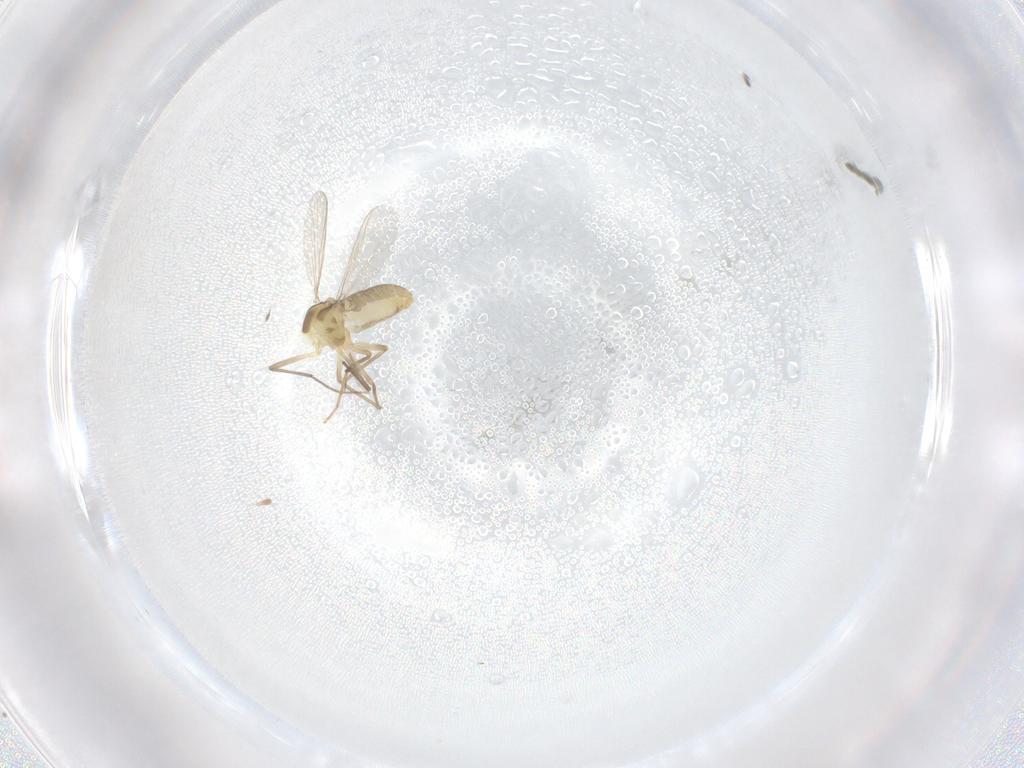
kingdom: Animalia
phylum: Arthropoda
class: Insecta
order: Diptera
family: Chironomidae
